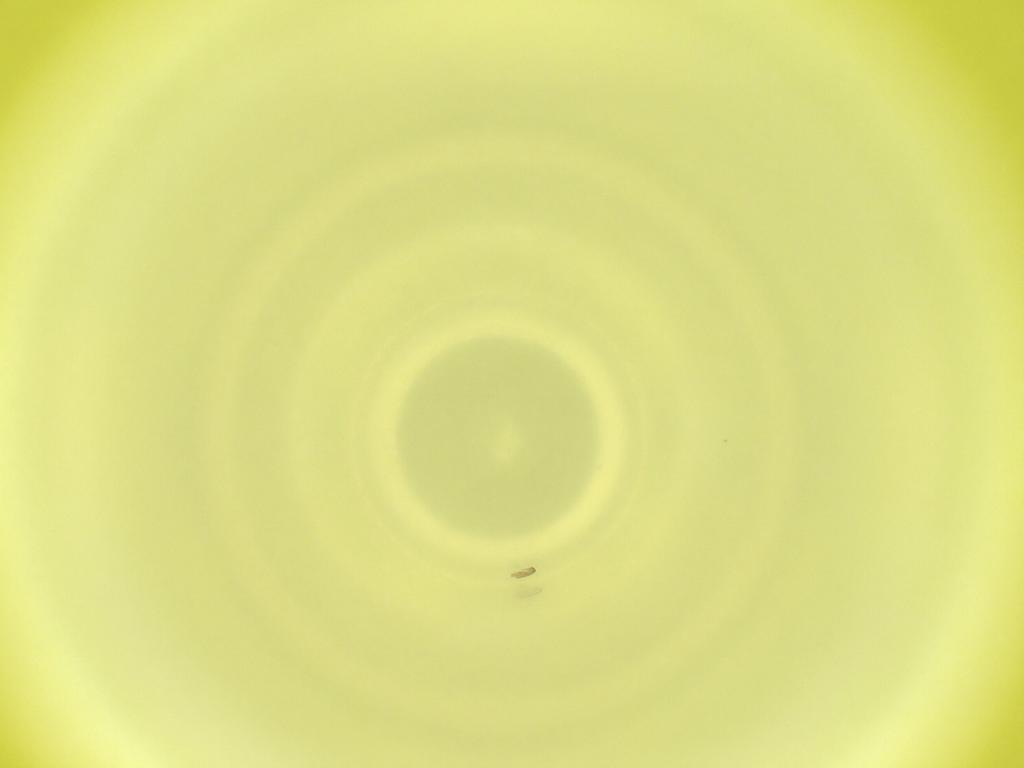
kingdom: Animalia
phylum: Arthropoda
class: Insecta
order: Diptera
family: Cecidomyiidae
